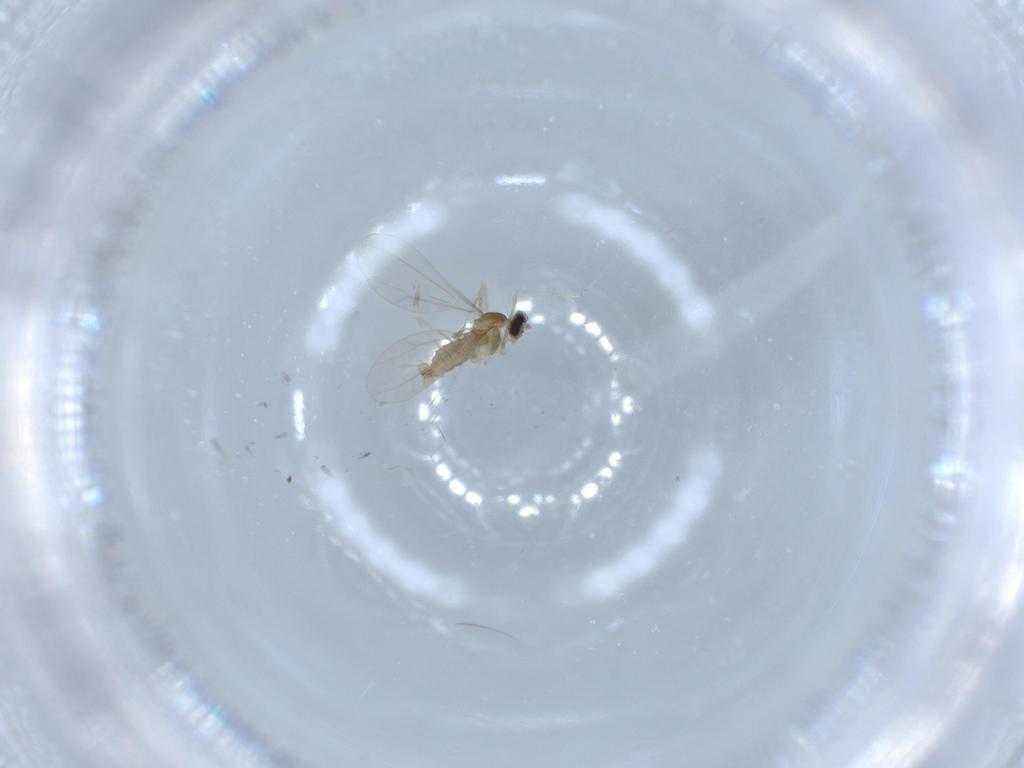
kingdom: Animalia
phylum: Arthropoda
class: Insecta
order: Diptera
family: Cecidomyiidae
